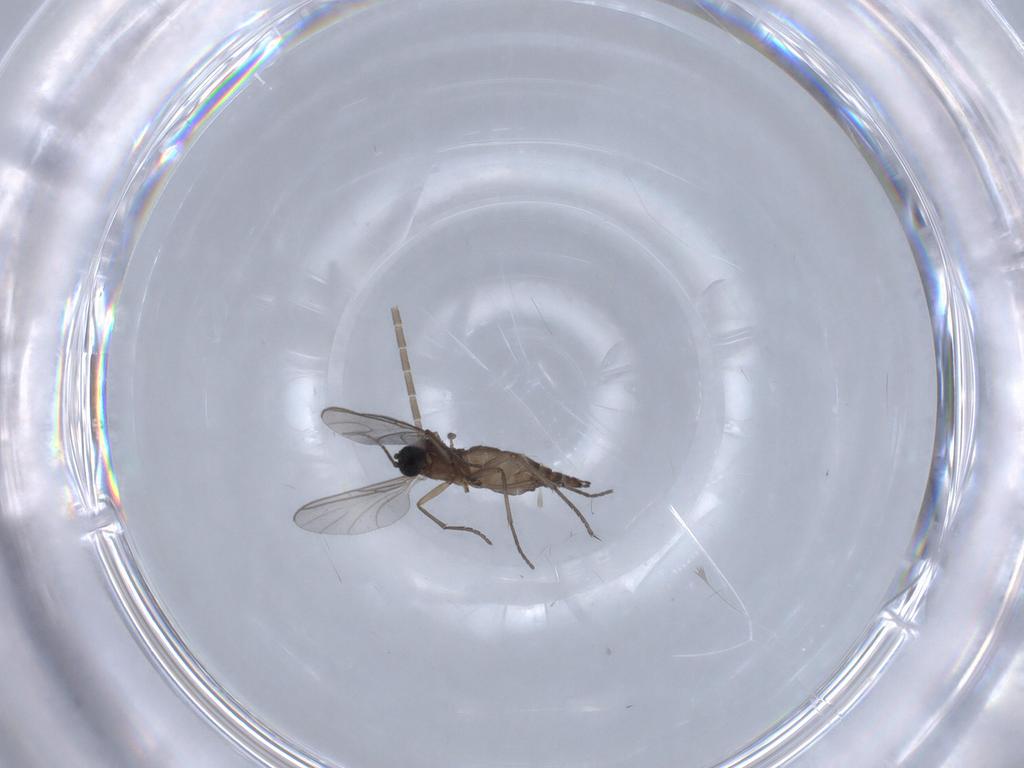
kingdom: Animalia
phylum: Arthropoda
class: Insecta
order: Diptera
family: Sciaridae
